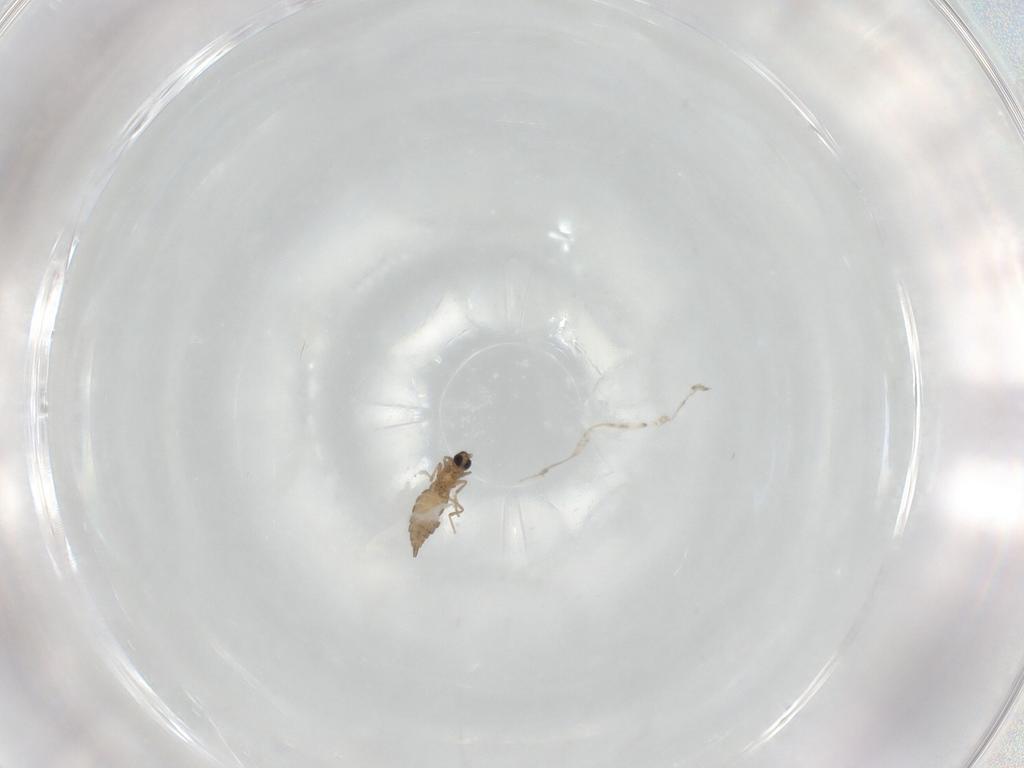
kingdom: Animalia
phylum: Arthropoda
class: Insecta
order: Diptera
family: Cecidomyiidae
